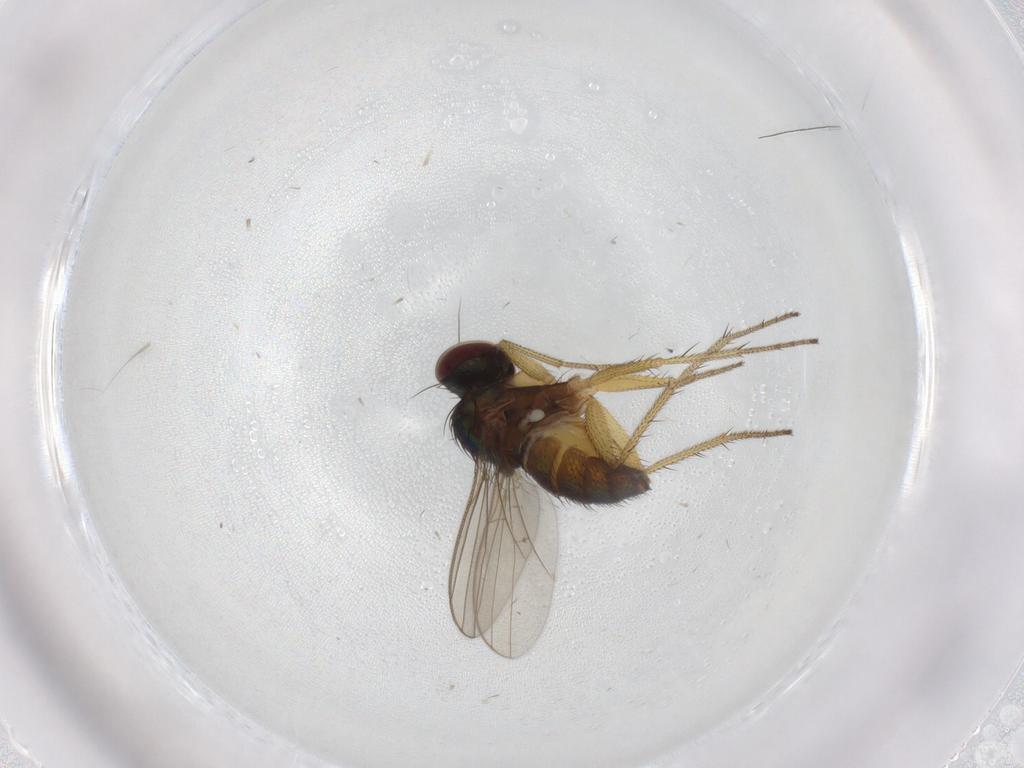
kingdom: Animalia
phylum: Arthropoda
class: Insecta
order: Diptera
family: Dolichopodidae
